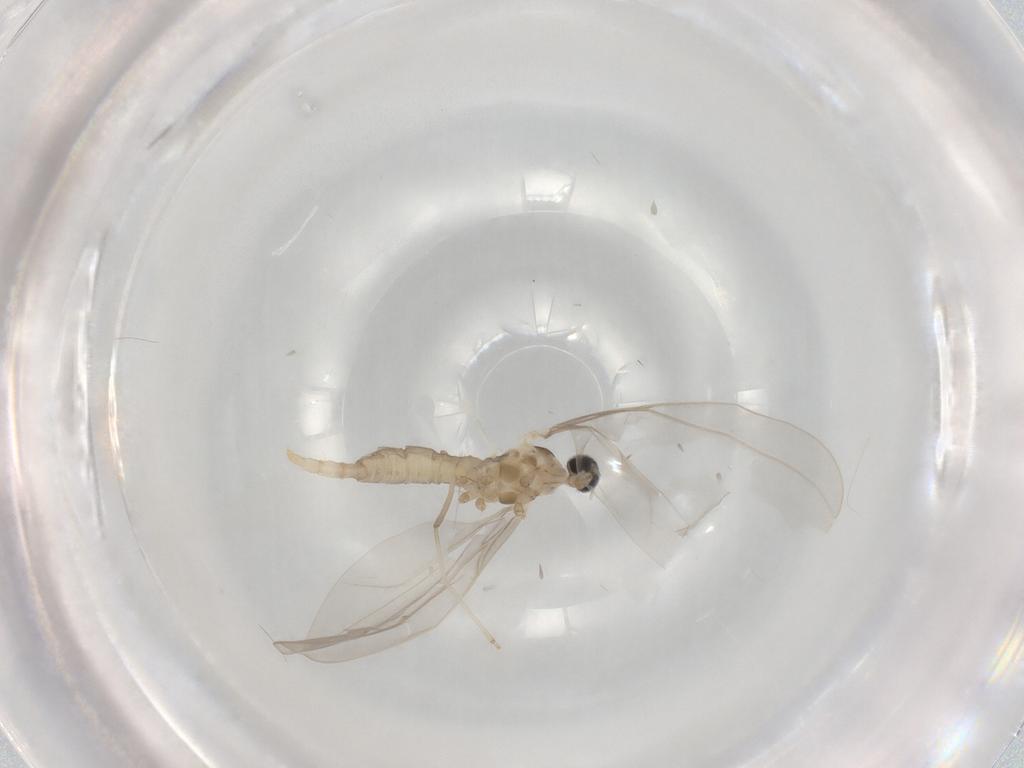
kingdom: Animalia
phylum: Arthropoda
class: Insecta
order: Diptera
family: Cecidomyiidae
